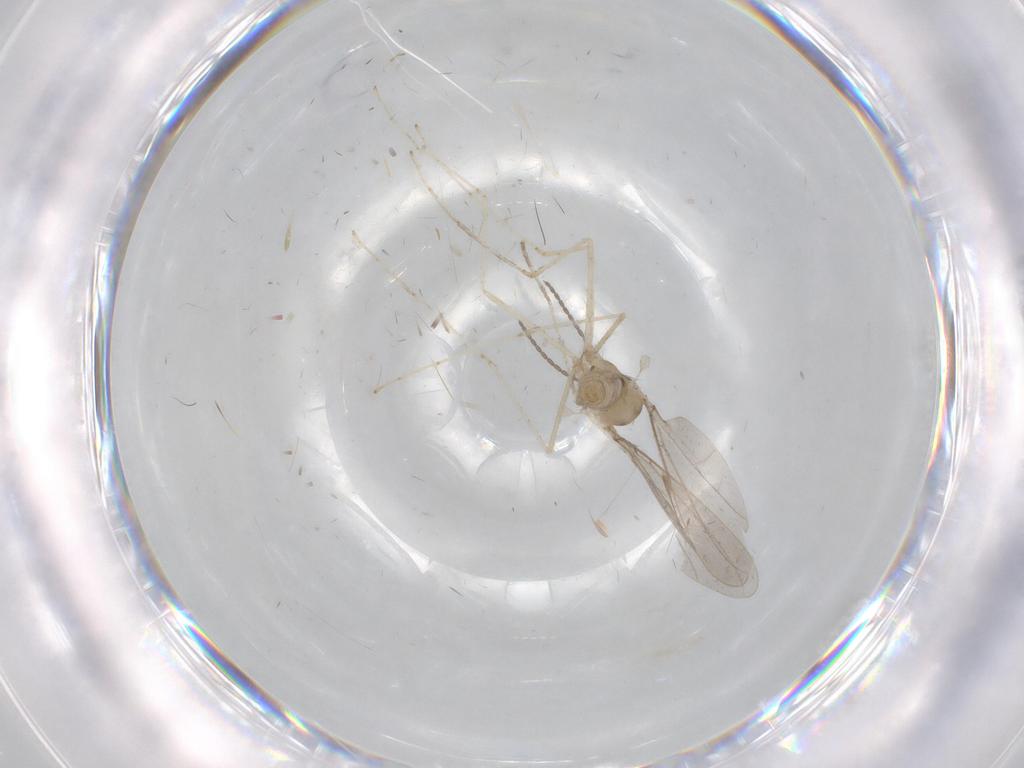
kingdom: Animalia
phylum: Arthropoda
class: Insecta
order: Diptera
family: Cecidomyiidae
